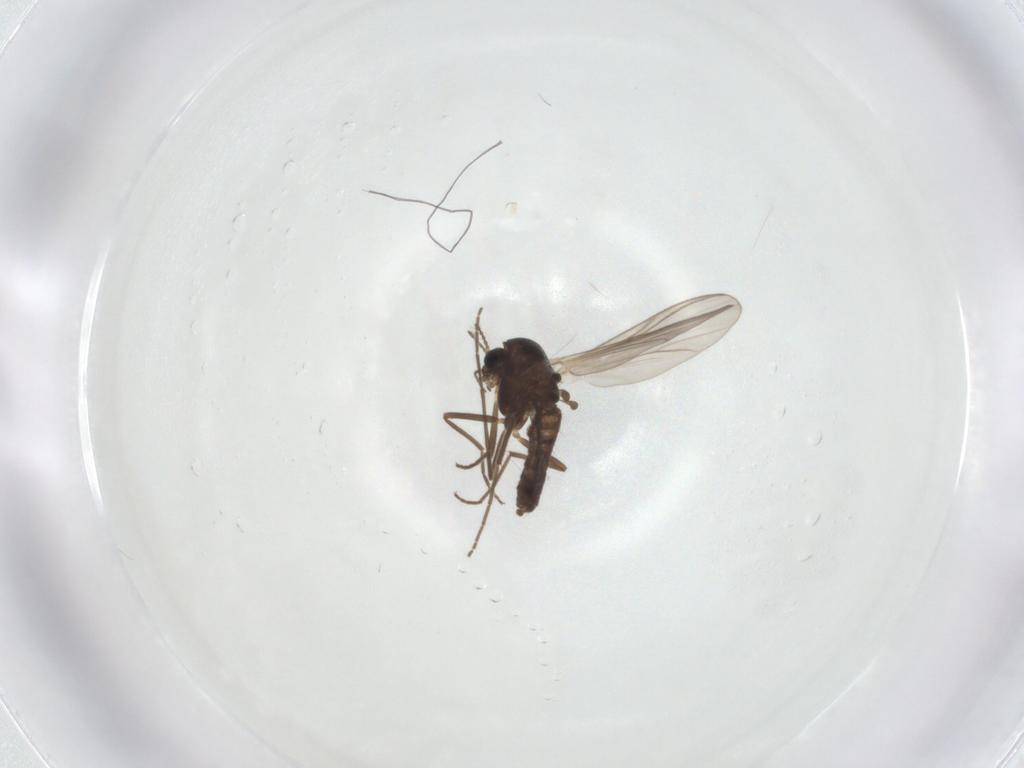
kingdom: Animalia
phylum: Arthropoda
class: Insecta
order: Diptera
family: Chironomidae
